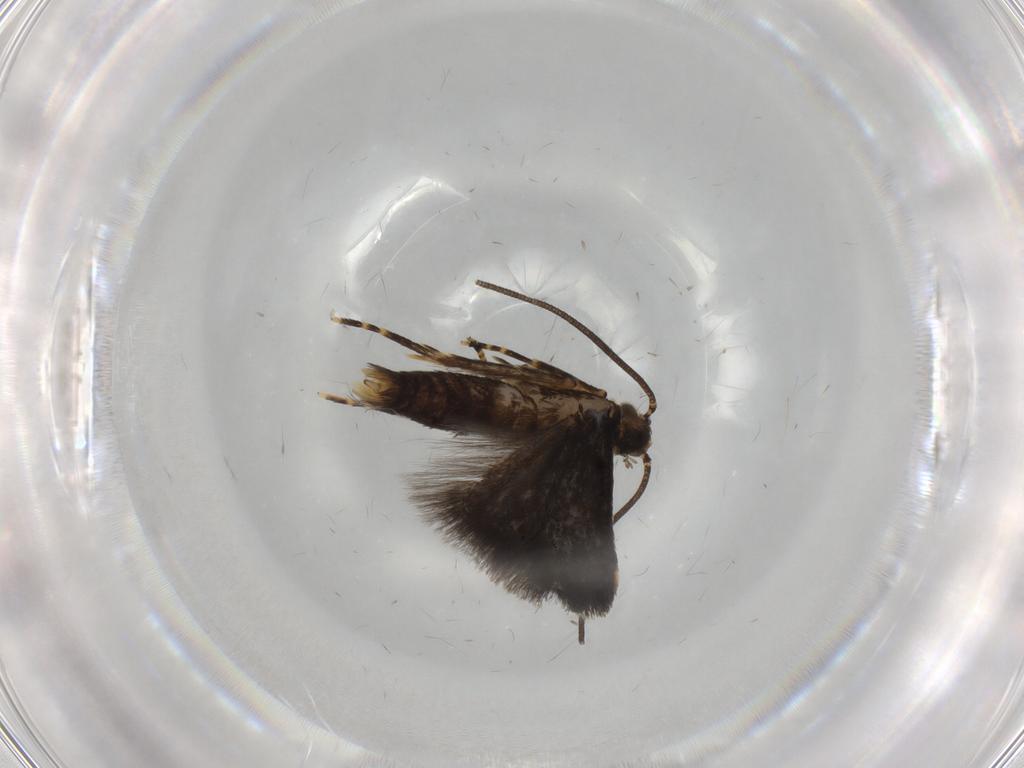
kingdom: Animalia
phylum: Arthropoda
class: Insecta
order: Lepidoptera
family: Oecophoridae
